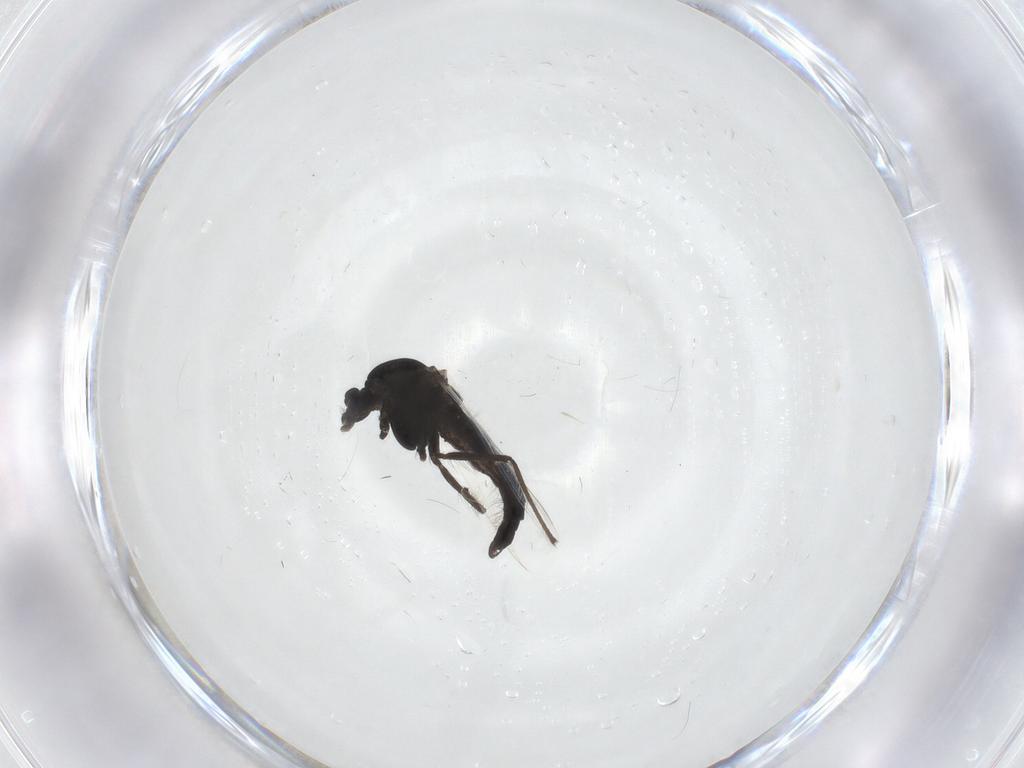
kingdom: Animalia
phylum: Arthropoda
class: Insecta
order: Diptera
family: Chironomidae
